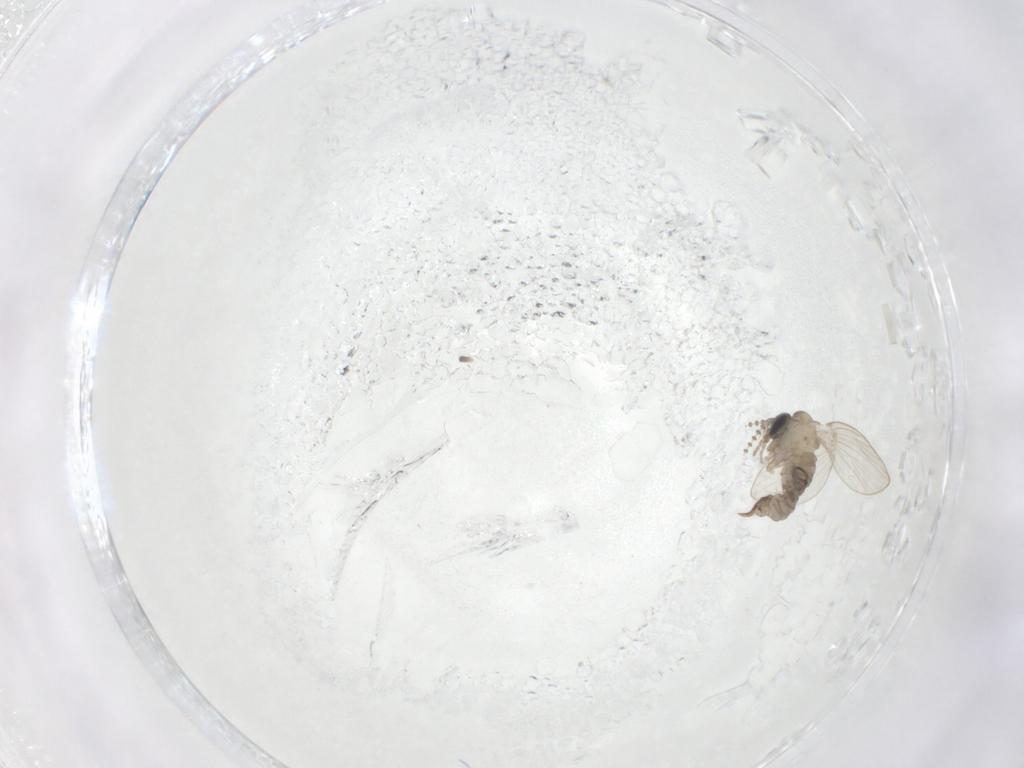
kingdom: Animalia
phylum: Arthropoda
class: Insecta
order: Diptera
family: Psychodidae
